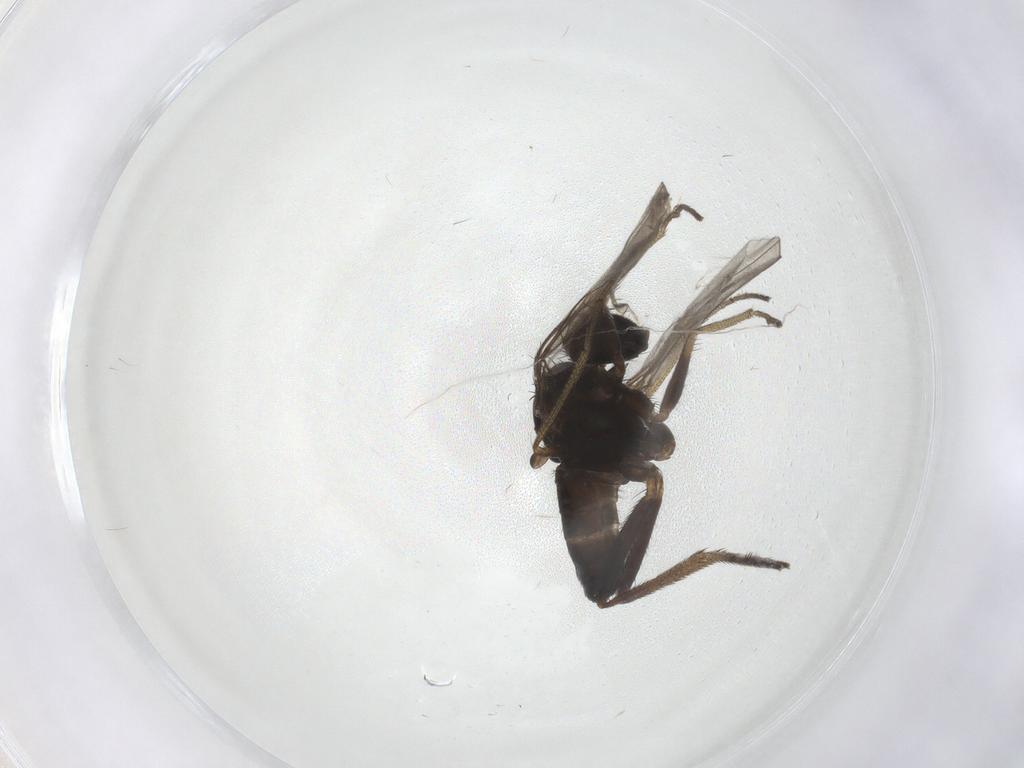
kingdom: Animalia
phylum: Arthropoda
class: Insecta
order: Diptera
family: Dolichopodidae
